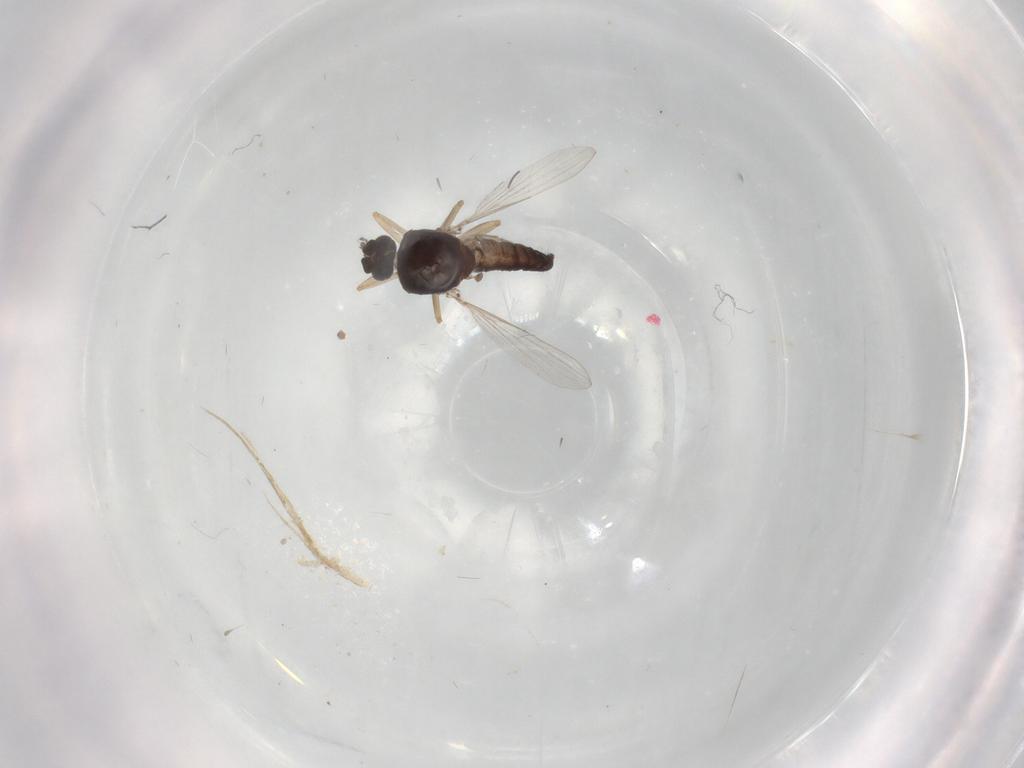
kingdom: Animalia
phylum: Arthropoda
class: Insecta
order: Diptera
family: Ceratopogonidae
